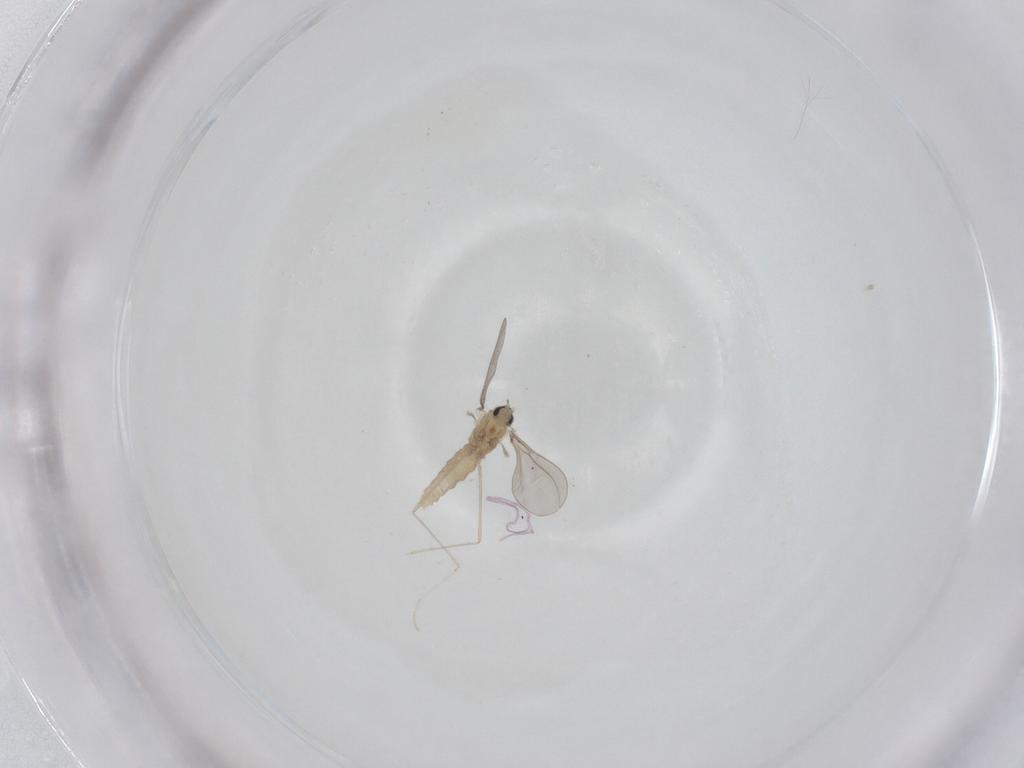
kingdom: Animalia
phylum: Arthropoda
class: Insecta
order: Diptera
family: Cecidomyiidae
